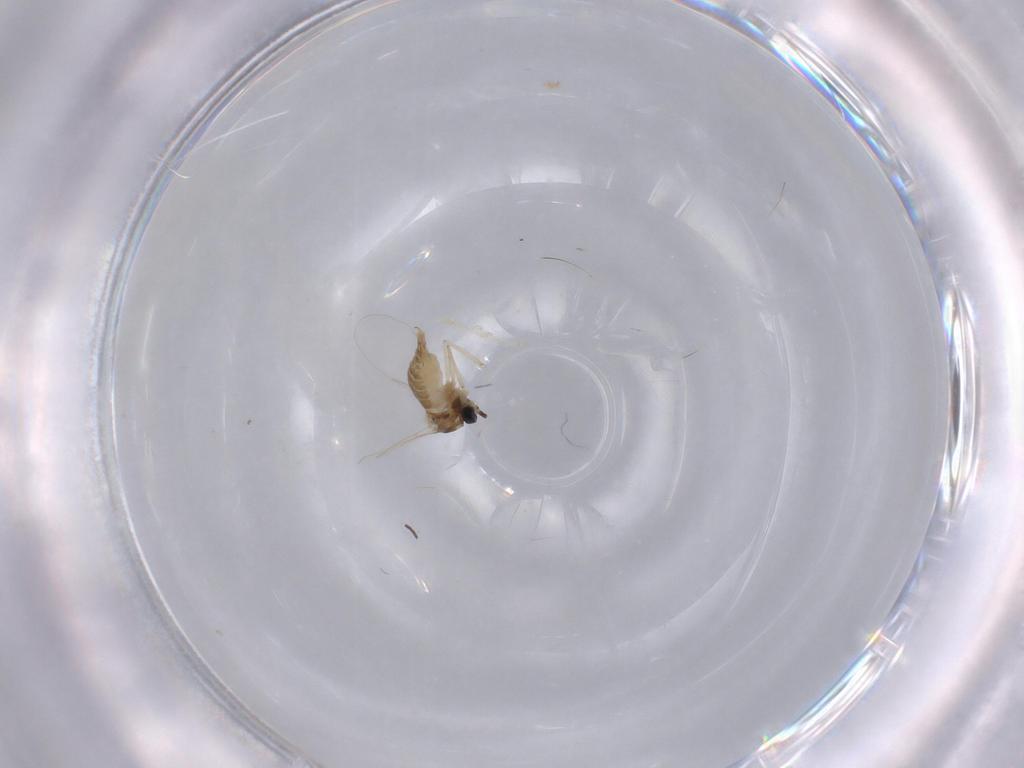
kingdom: Animalia
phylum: Arthropoda
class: Insecta
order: Diptera
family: Cecidomyiidae
